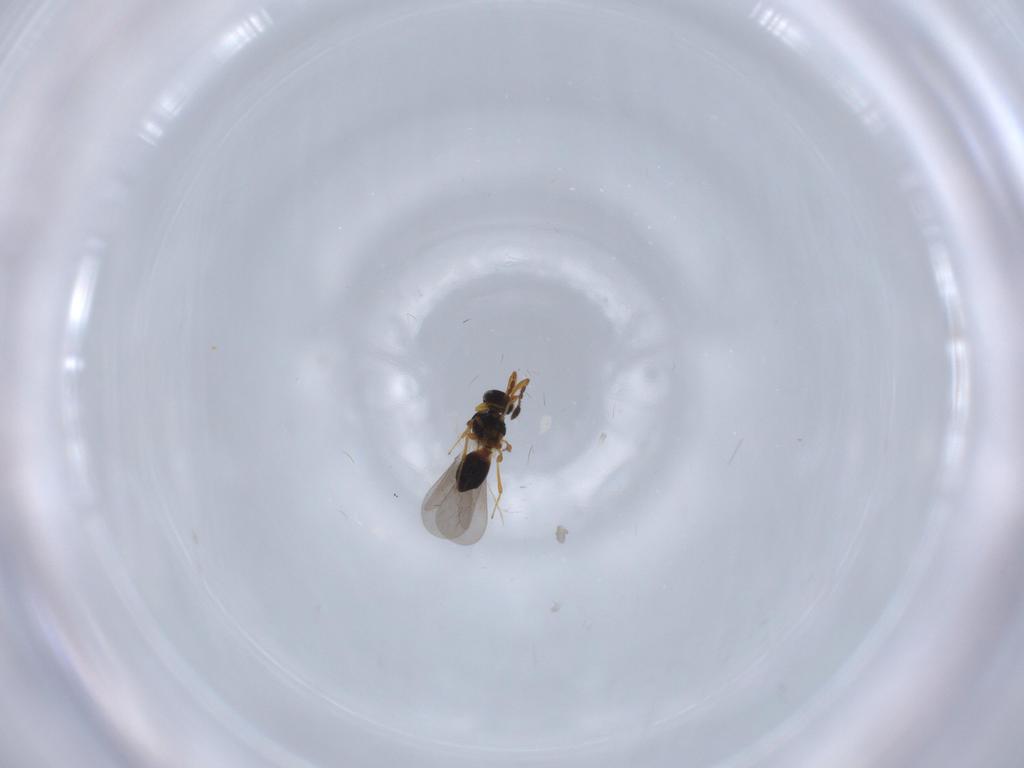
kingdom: Animalia
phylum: Arthropoda
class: Insecta
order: Hymenoptera
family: Platygastridae
